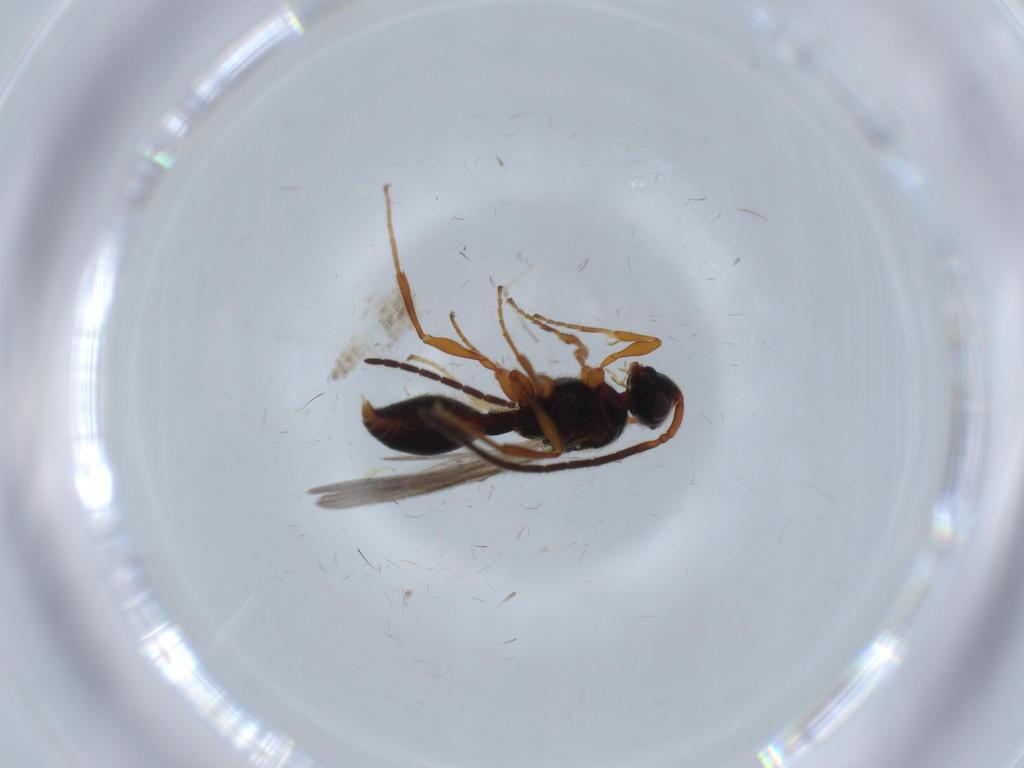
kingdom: Animalia
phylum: Arthropoda
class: Insecta
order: Hymenoptera
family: Ichneumonidae
